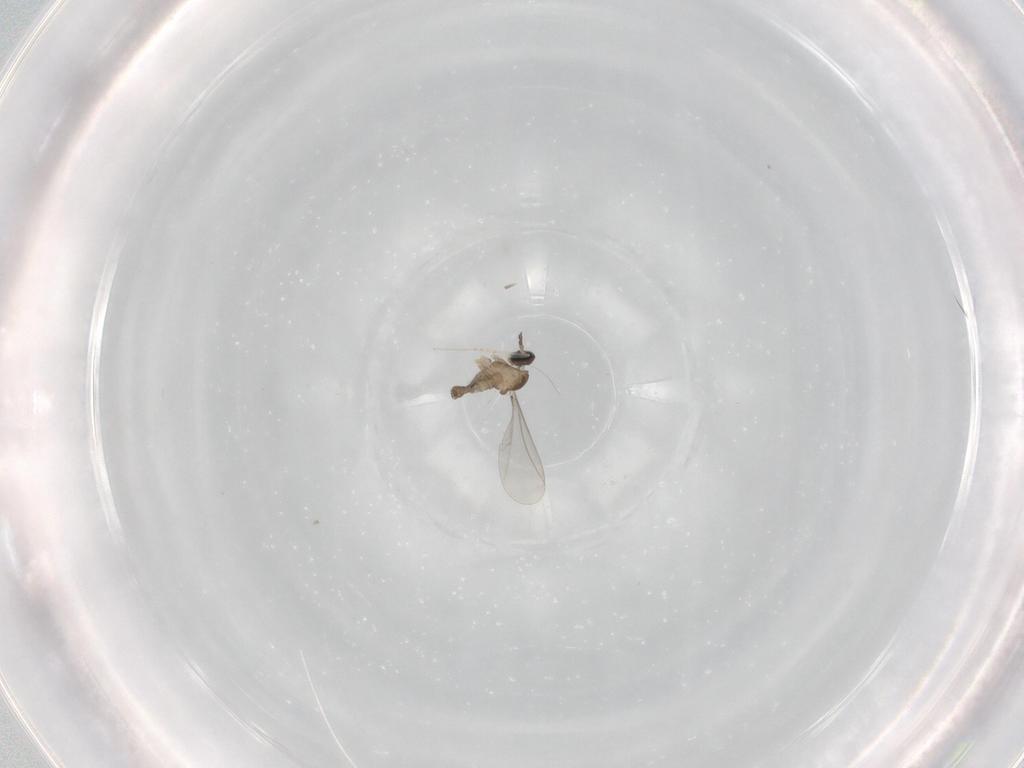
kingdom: Animalia
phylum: Arthropoda
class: Insecta
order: Diptera
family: Cecidomyiidae
